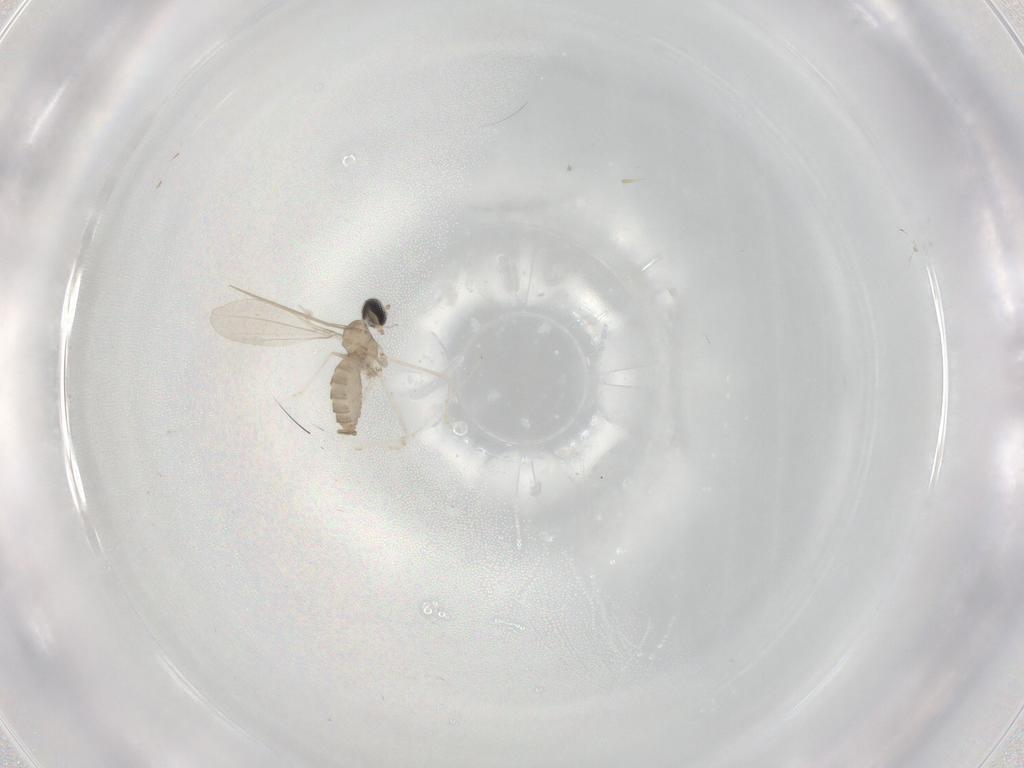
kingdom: Animalia
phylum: Arthropoda
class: Insecta
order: Diptera
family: Cecidomyiidae
